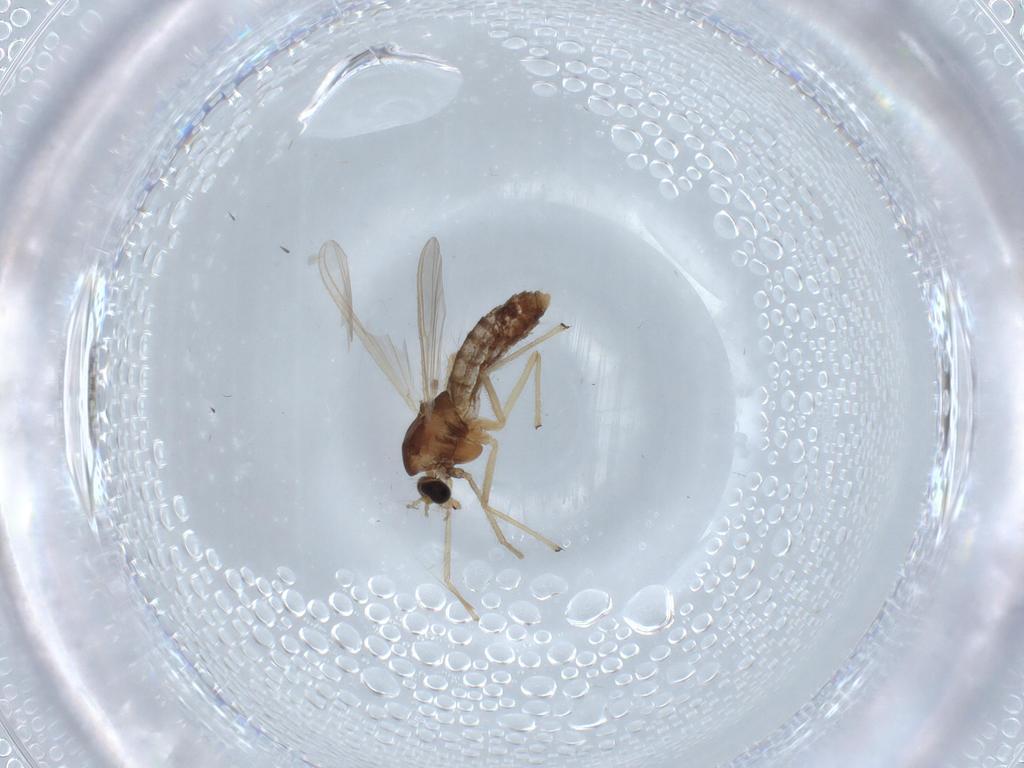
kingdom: Animalia
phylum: Arthropoda
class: Insecta
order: Diptera
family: Chironomidae
